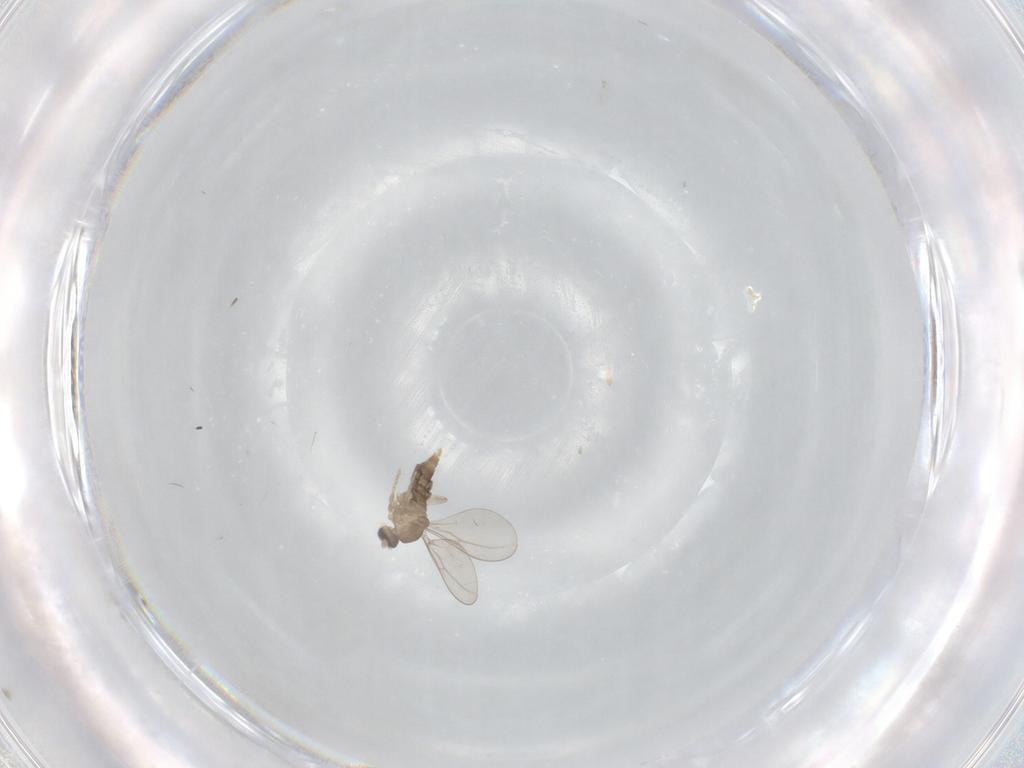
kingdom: Animalia
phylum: Arthropoda
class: Insecta
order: Diptera
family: Cecidomyiidae
